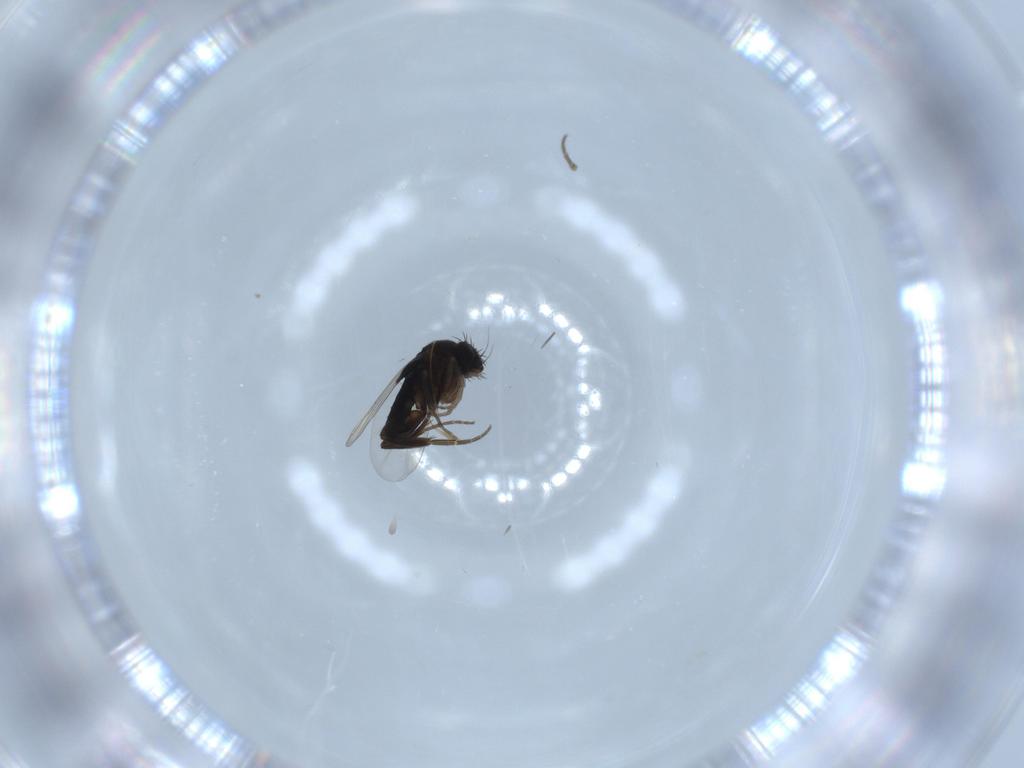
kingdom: Animalia
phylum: Arthropoda
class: Insecta
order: Diptera
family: Phoridae
